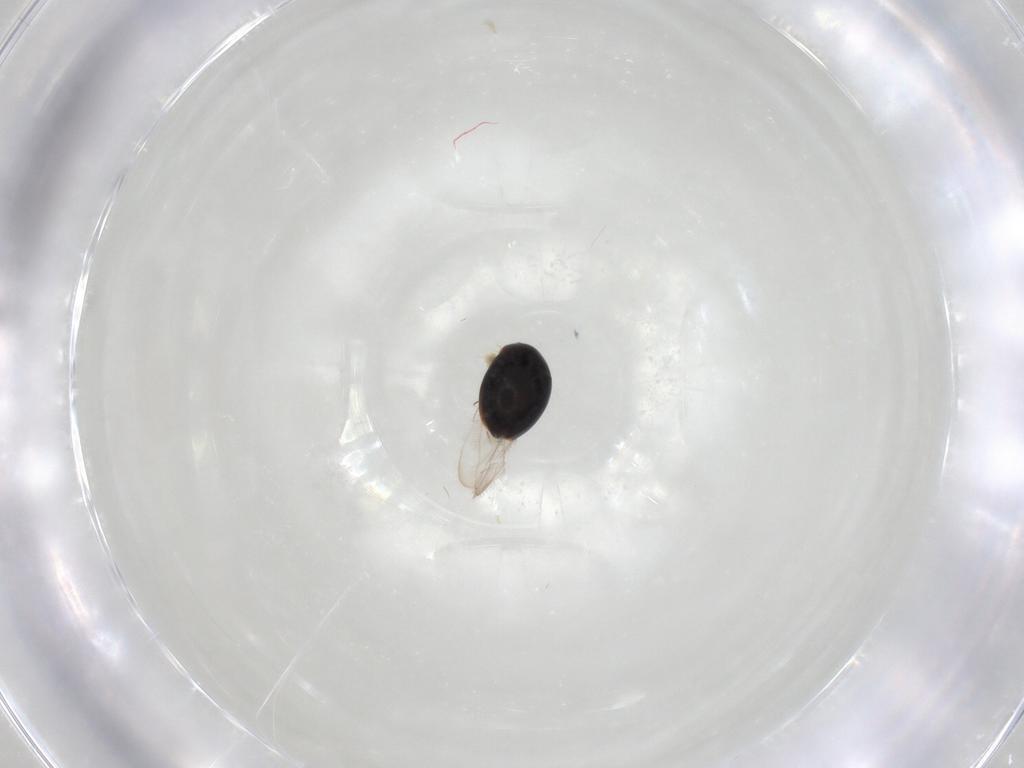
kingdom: Animalia
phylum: Arthropoda
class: Insecta
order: Coleoptera
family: Corylophidae
